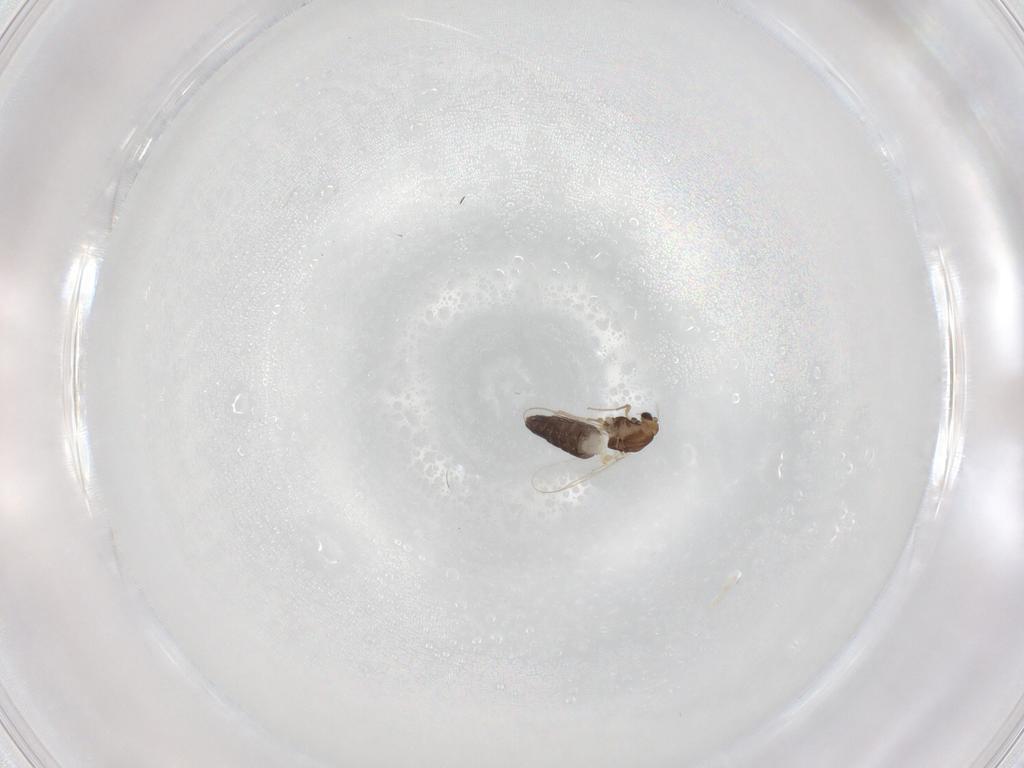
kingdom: Animalia
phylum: Arthropoda
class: Insecta
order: Diptera
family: Chironomidae
